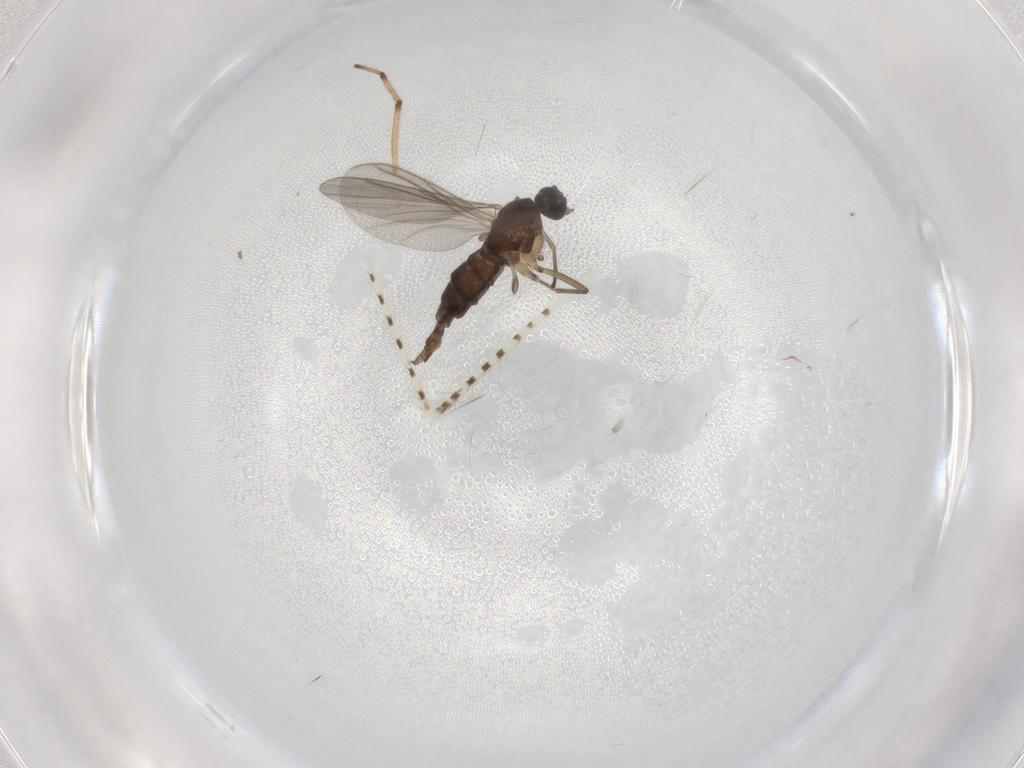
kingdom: Animalia
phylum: Arthropoda
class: Insecta
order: Diptera
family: Sciaridae
